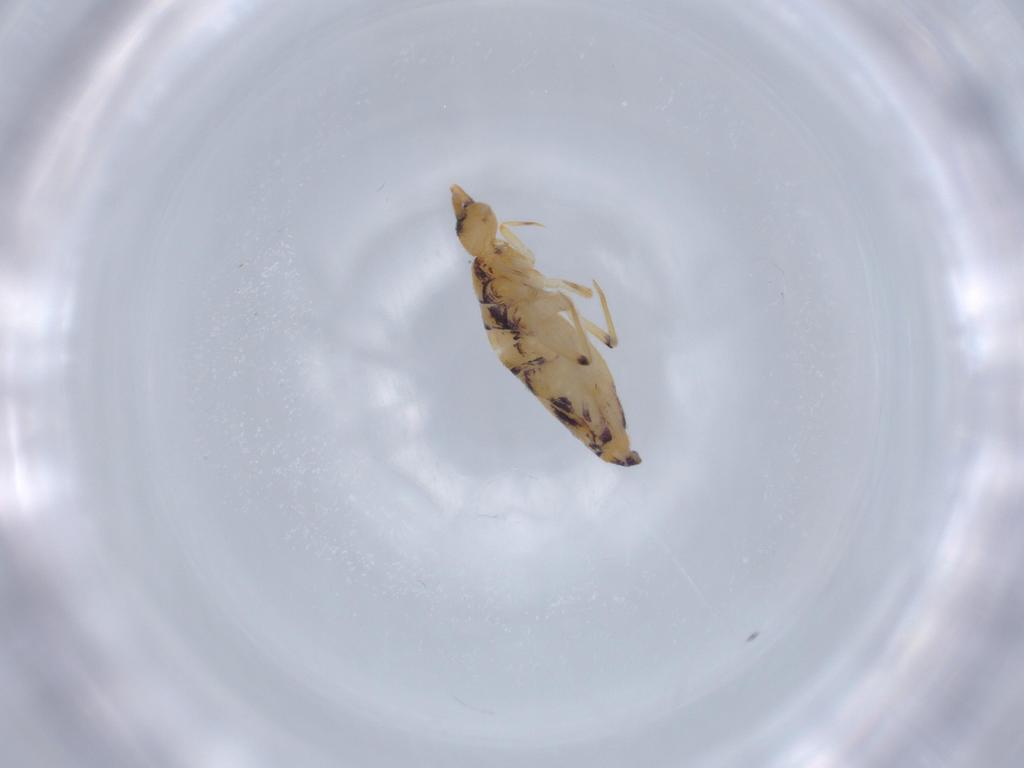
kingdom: Animalia
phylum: Arthropoda
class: Collembola
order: Entomobryomorpha
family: Entomobryidae
